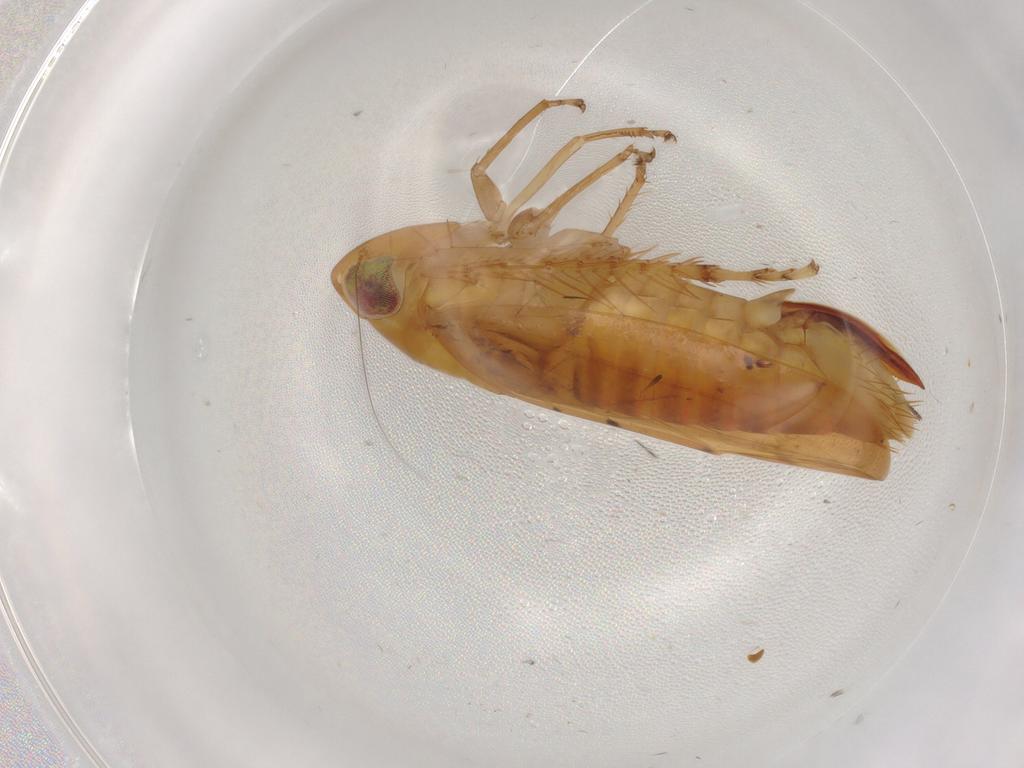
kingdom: Animalia
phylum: Arthropoda
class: Insecta
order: Hemiptera
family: Cicadellidae
